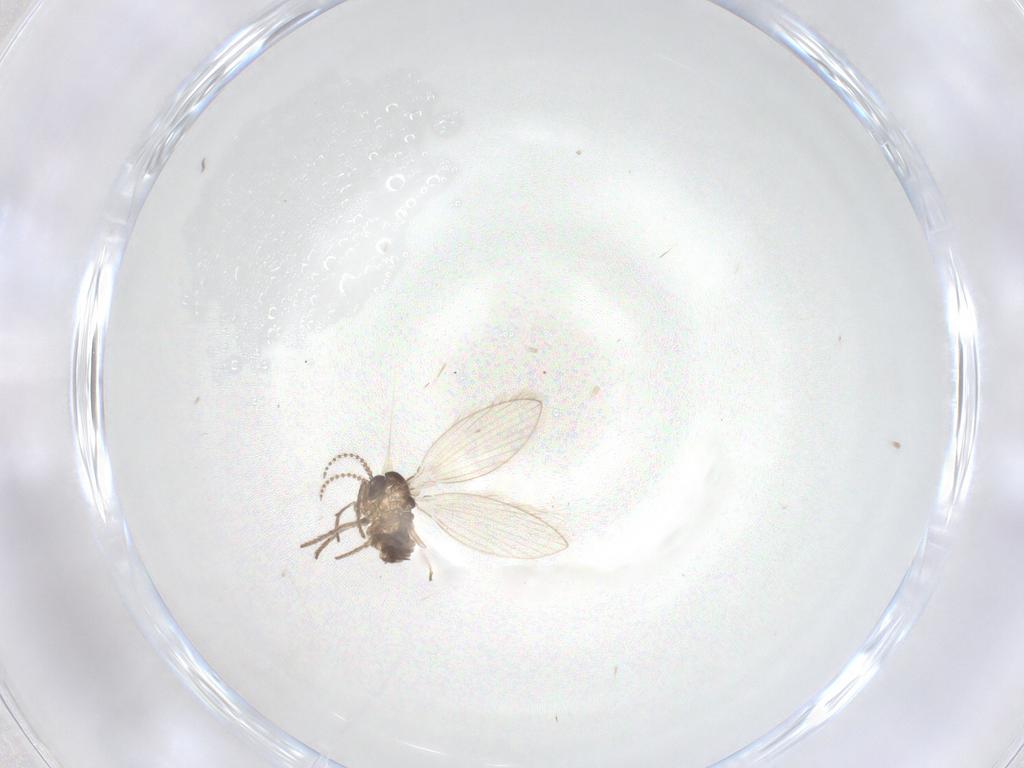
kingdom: Animalia
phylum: Arthropoda
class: Insecta
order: Diptera
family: Psychodidae
